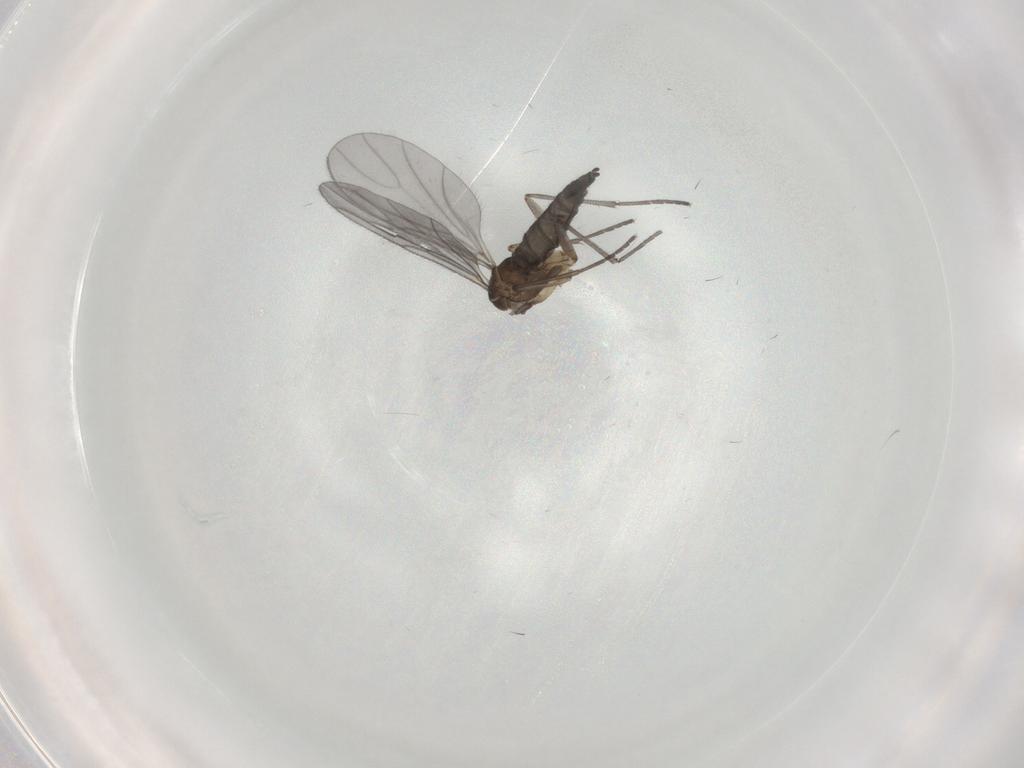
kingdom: Animalia
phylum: Arthropoda
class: Insecta
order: Diptera
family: Sciaridae
